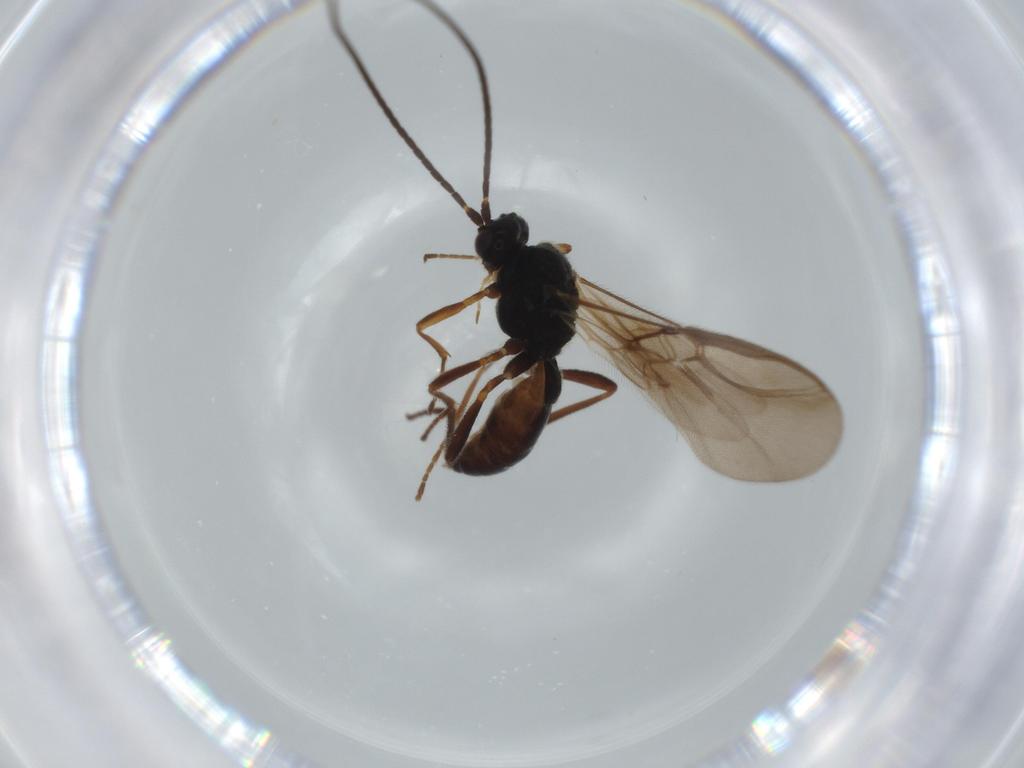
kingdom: Animalia
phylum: Arthropoda
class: Insecta
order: Hymenoptera
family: Braconidae
